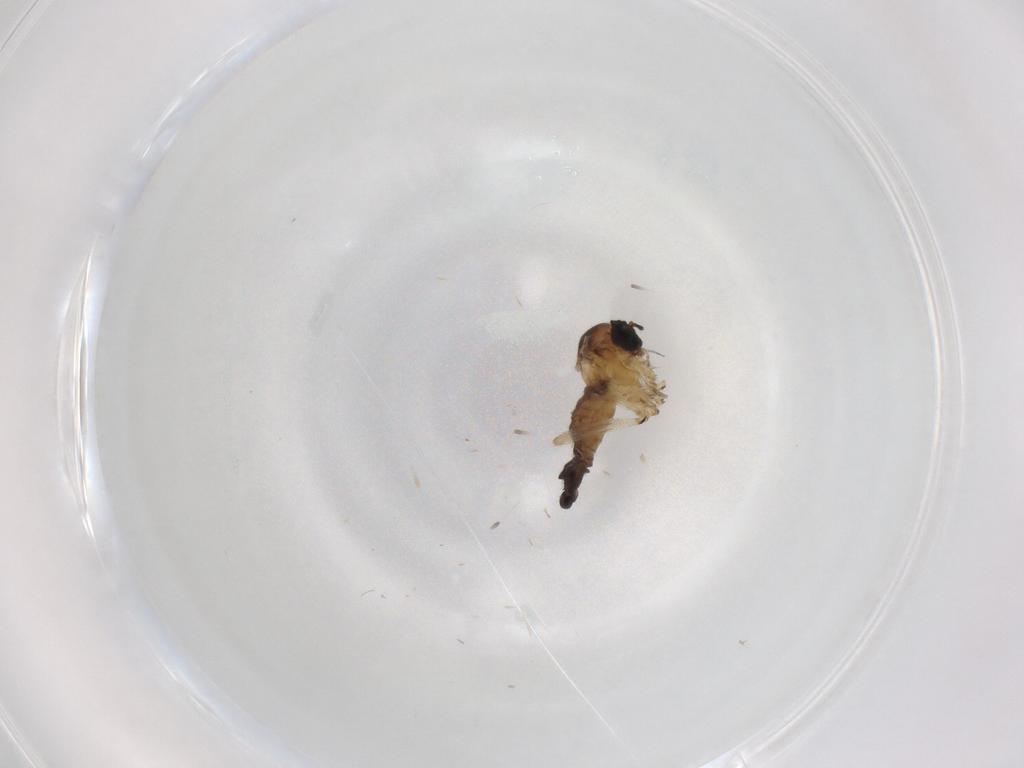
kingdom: Animalia
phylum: Arthropoda
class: Insecta
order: Diptera
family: Sciaridae
